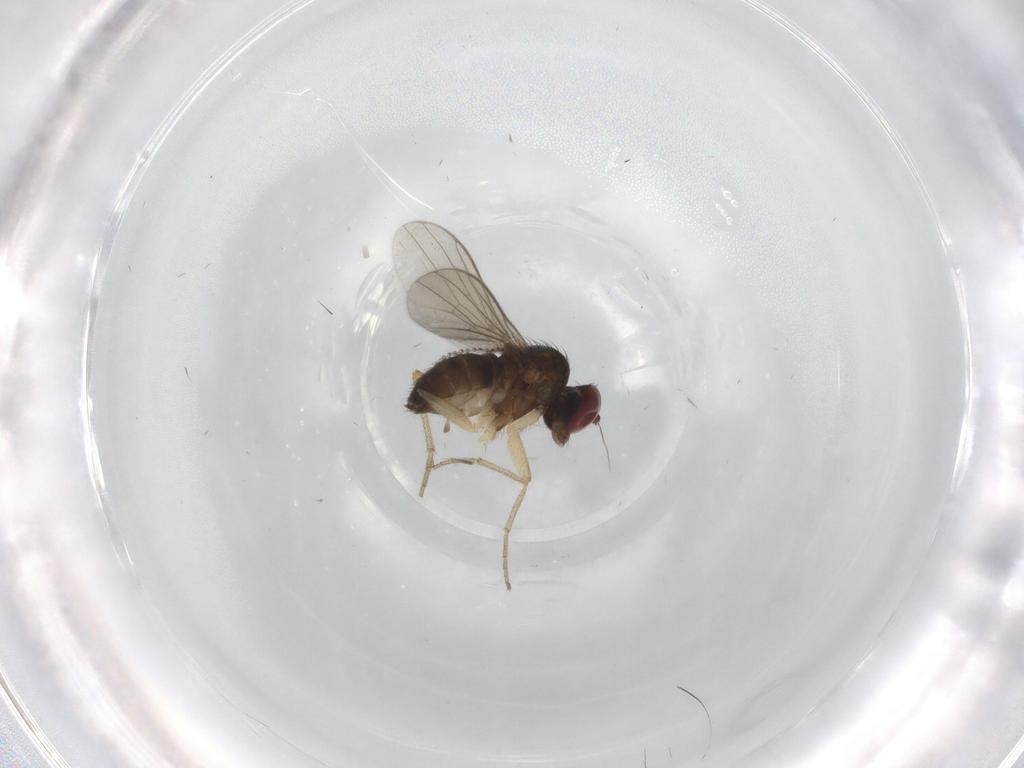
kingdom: Animalia
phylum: Arthropoda
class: Insecta
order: Diptera
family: Dolichopodidae
